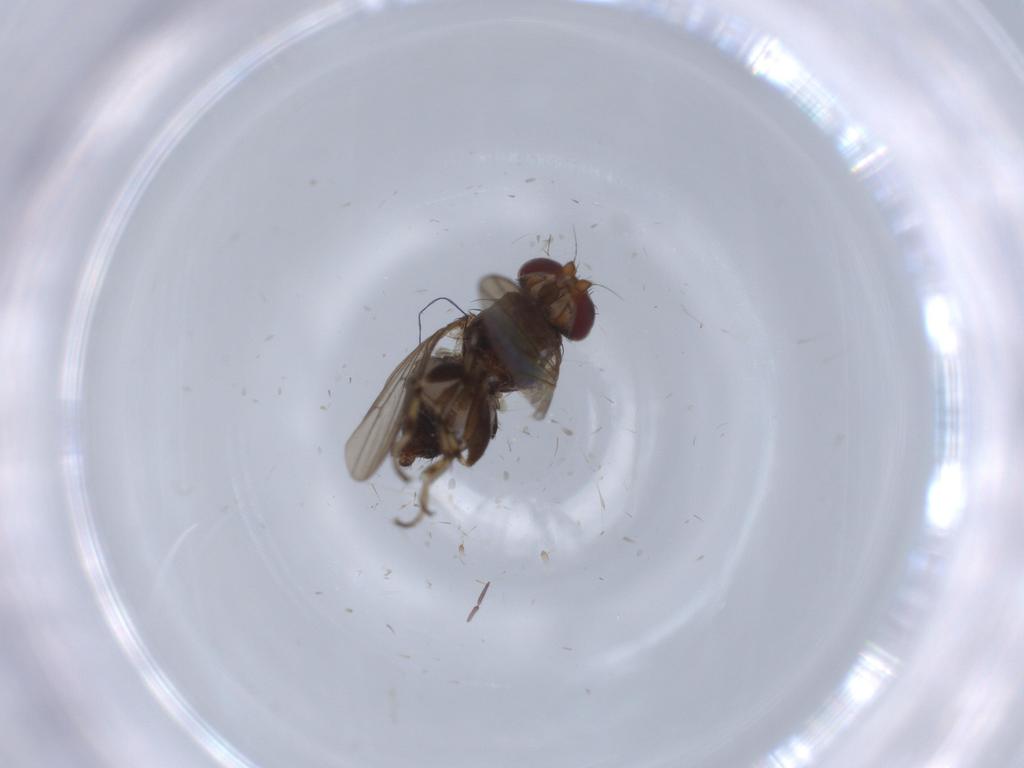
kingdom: Animalia
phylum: Arthropoda
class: Insecta
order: Diptera
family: Heleomyzidae
